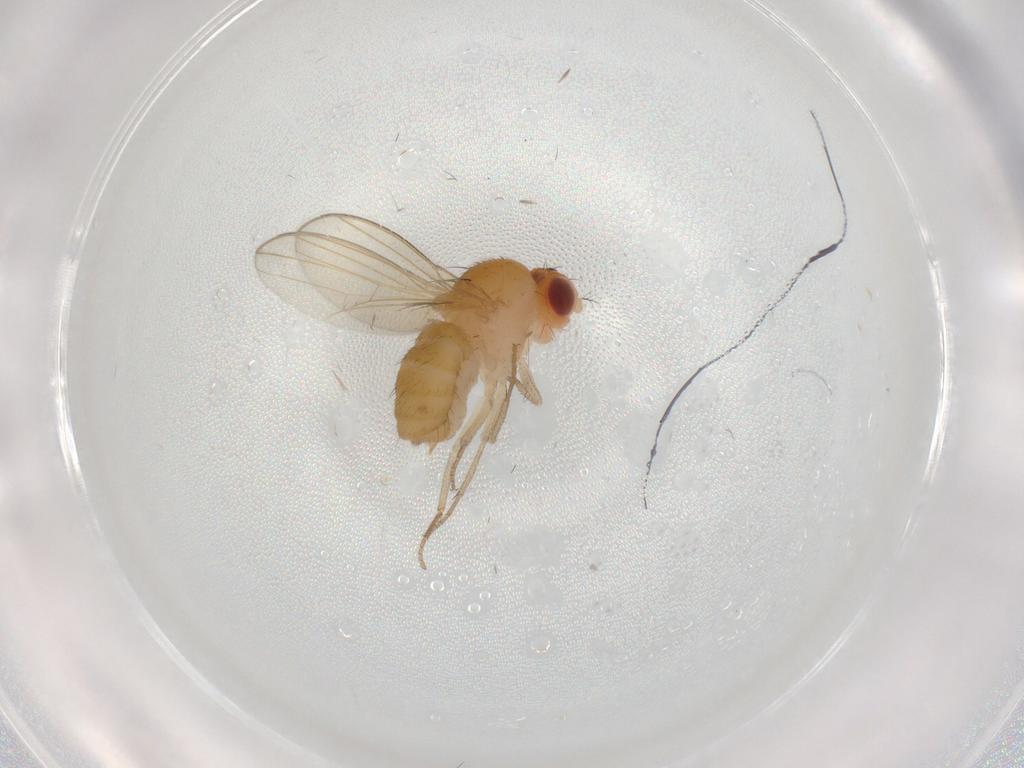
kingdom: Animalia
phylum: Arthropoda
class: Insecta
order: Diptera
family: Drosophilidae
